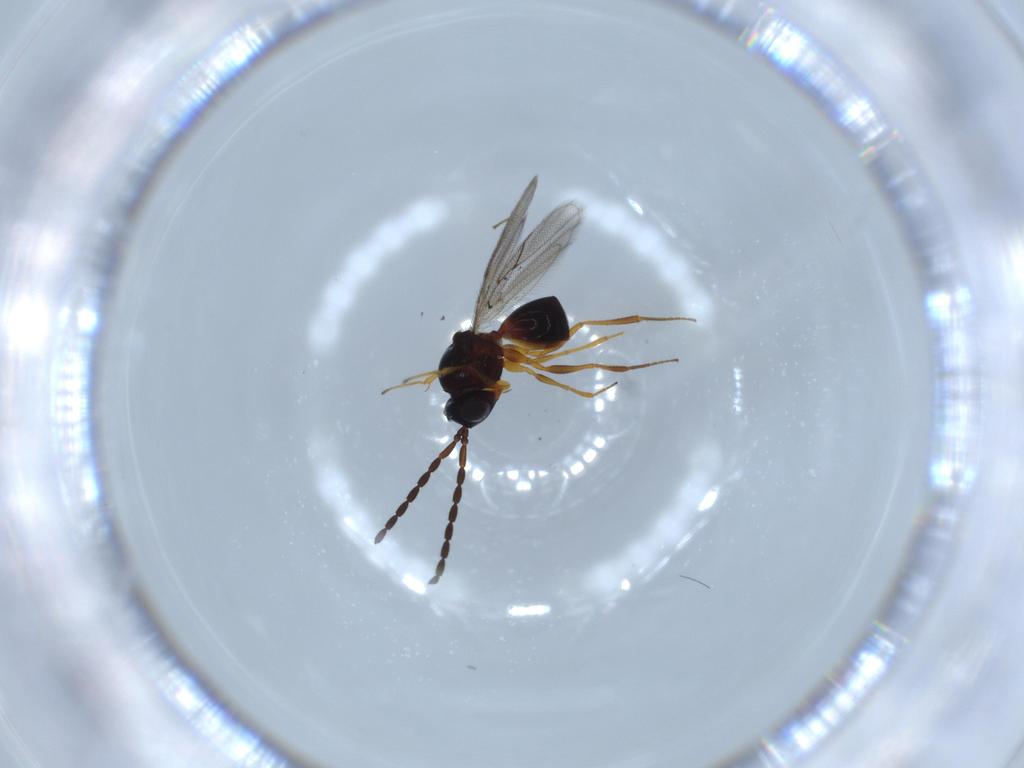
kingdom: Animalia
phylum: Arthropoda
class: Insecta
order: Hymenoptera
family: Figitidae
